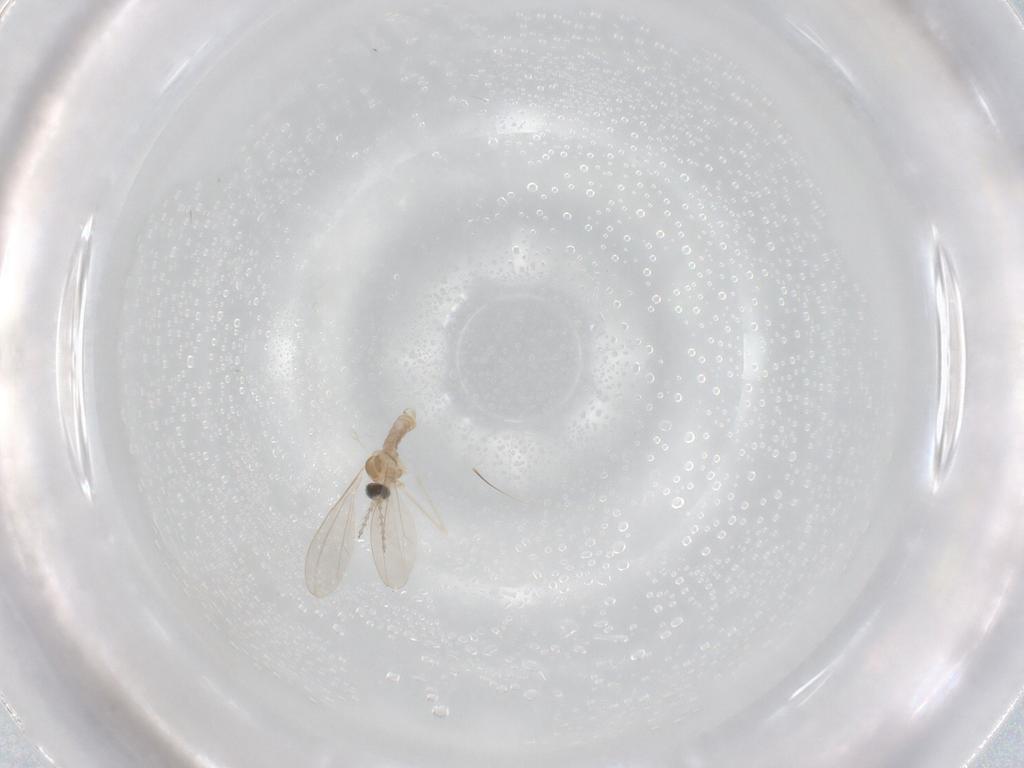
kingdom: Animalia
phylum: Arthropoda
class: Insecta
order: Diptera
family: Cecidomyiidae
